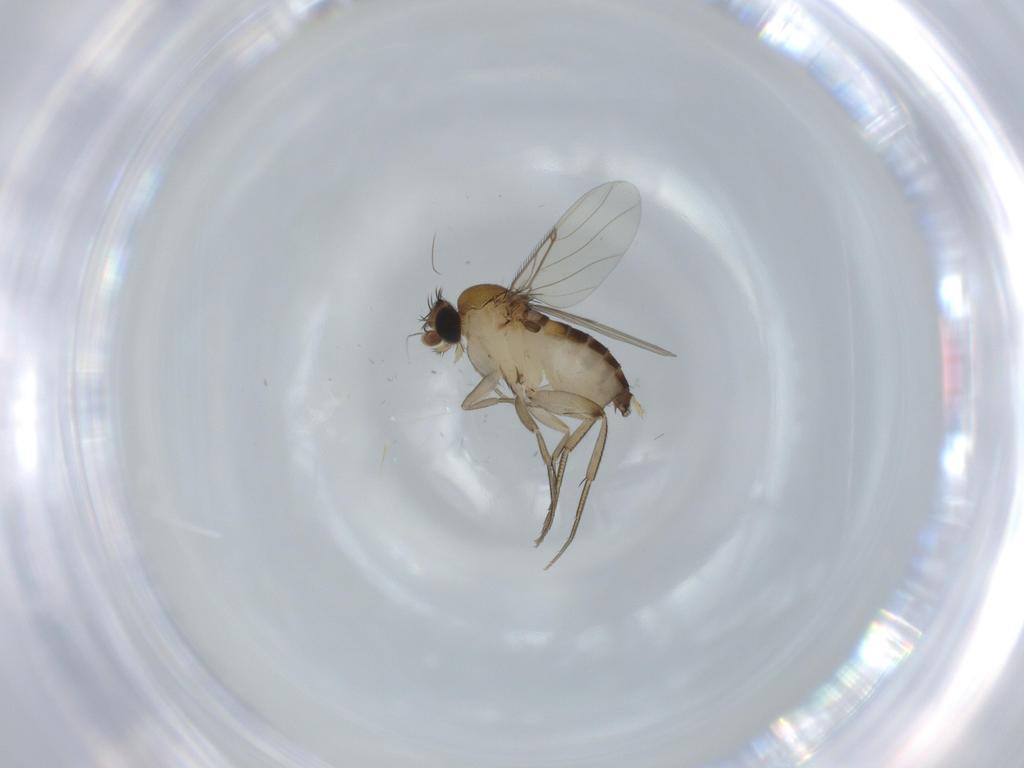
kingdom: Animalia
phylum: Arthropoda
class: Insecta
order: Diptera
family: Phoridae
